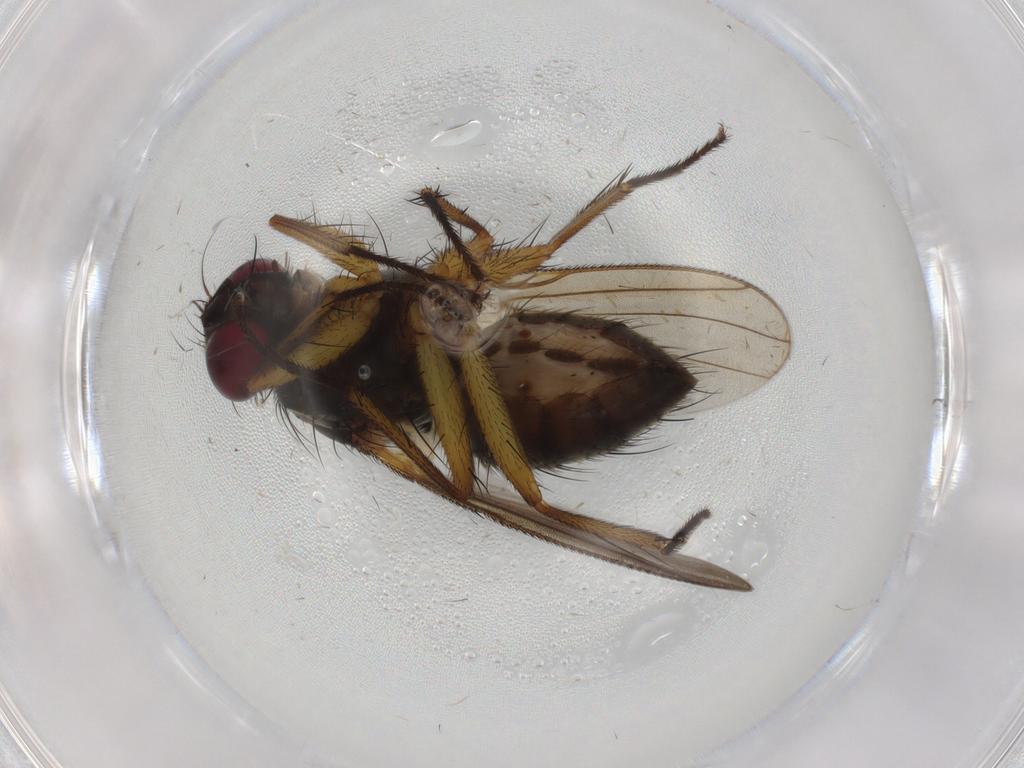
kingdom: Animalia
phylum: Arthropoda
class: Insecta
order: Diptera
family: Muscidae
